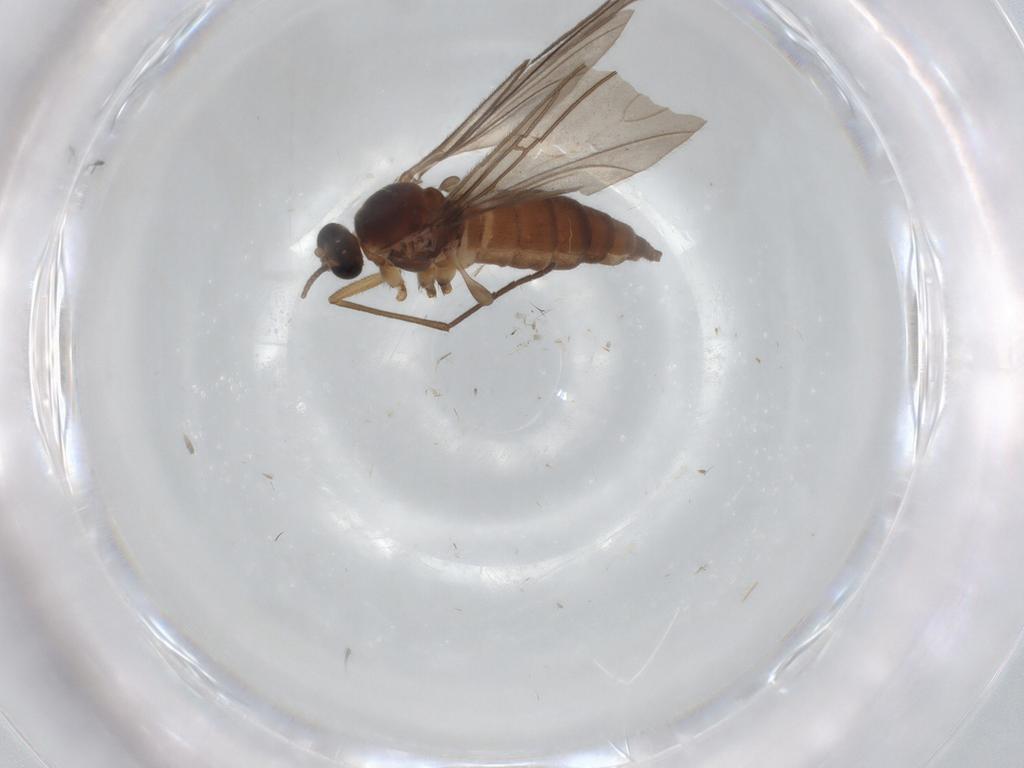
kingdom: Animalia
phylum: Arthropoda
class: Insecta
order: Diptera
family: Sciaridae
